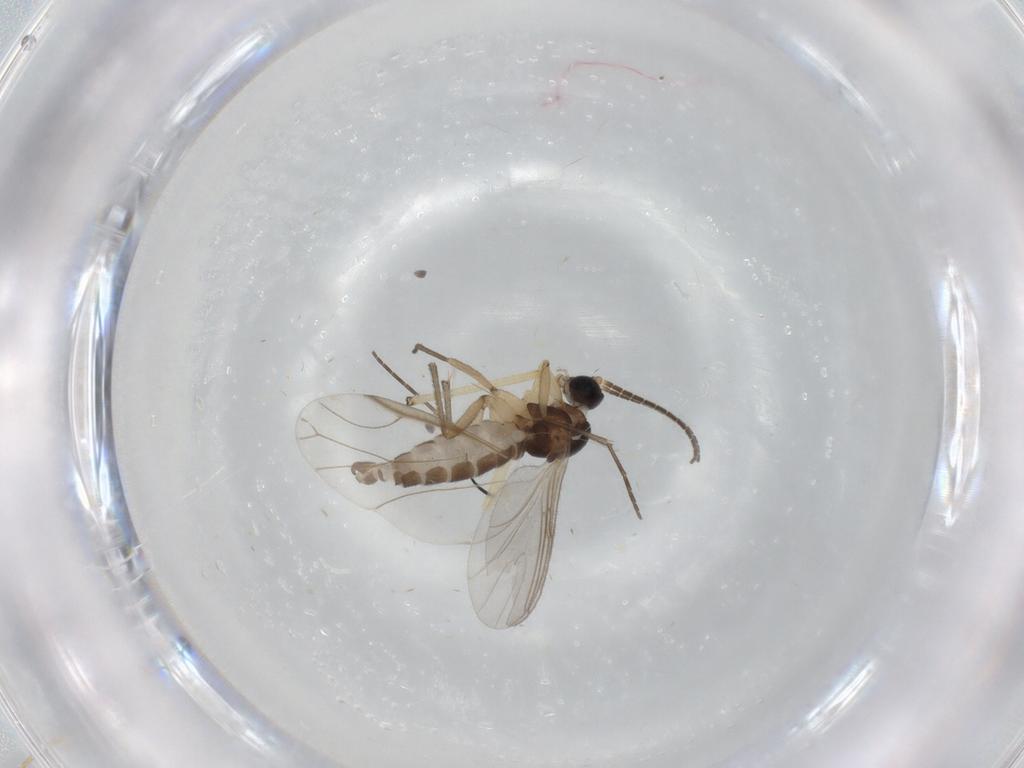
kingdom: Animalia
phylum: Arthropoda
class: Insecta
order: Diptera
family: Sciaridae
